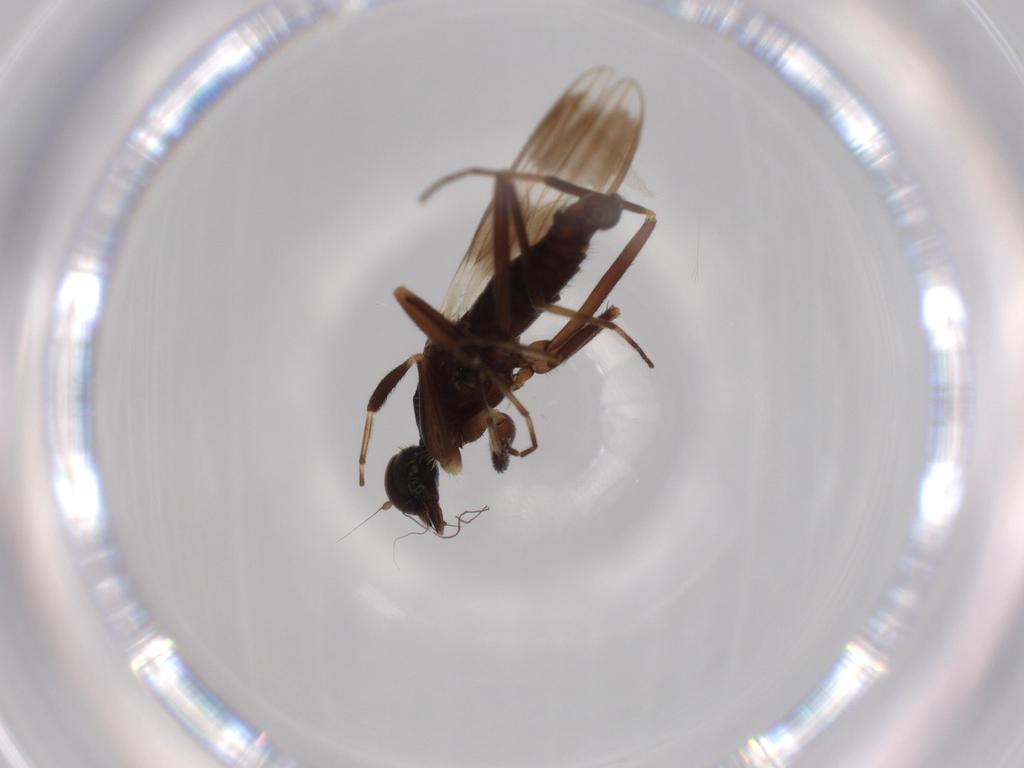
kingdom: Animalia
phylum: Arthropoda
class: Insecta
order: Diptera
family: Hybotidae
